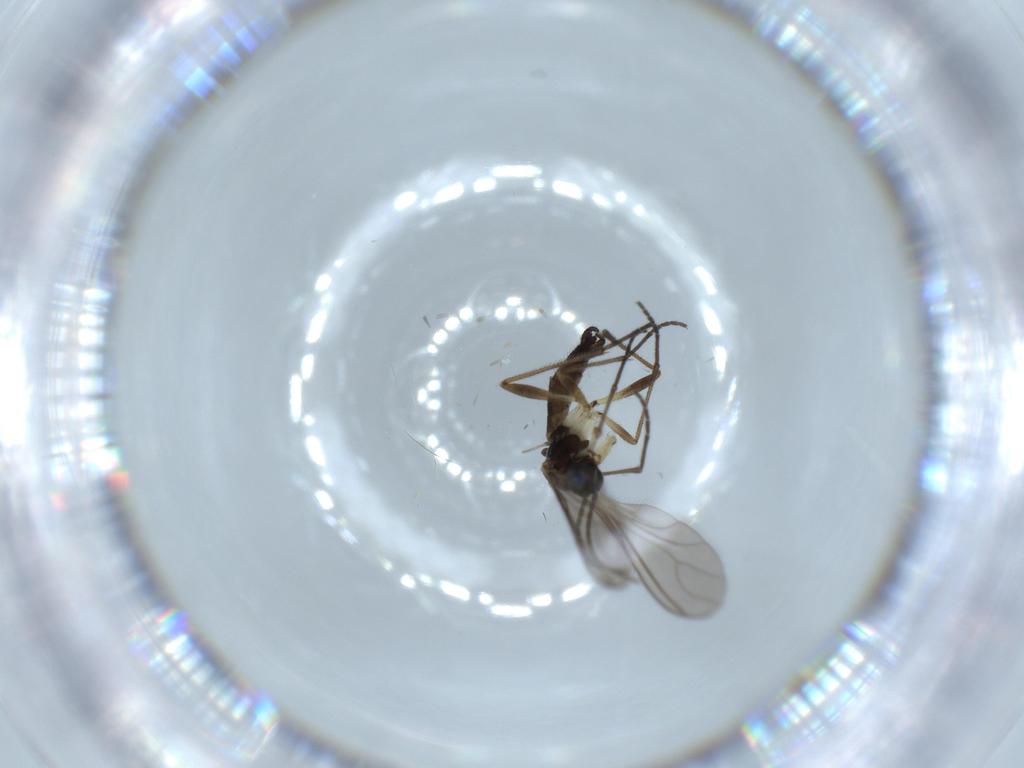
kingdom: Animalia
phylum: Arthropoda
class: Insecta
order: Diptera
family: Sciaridae
